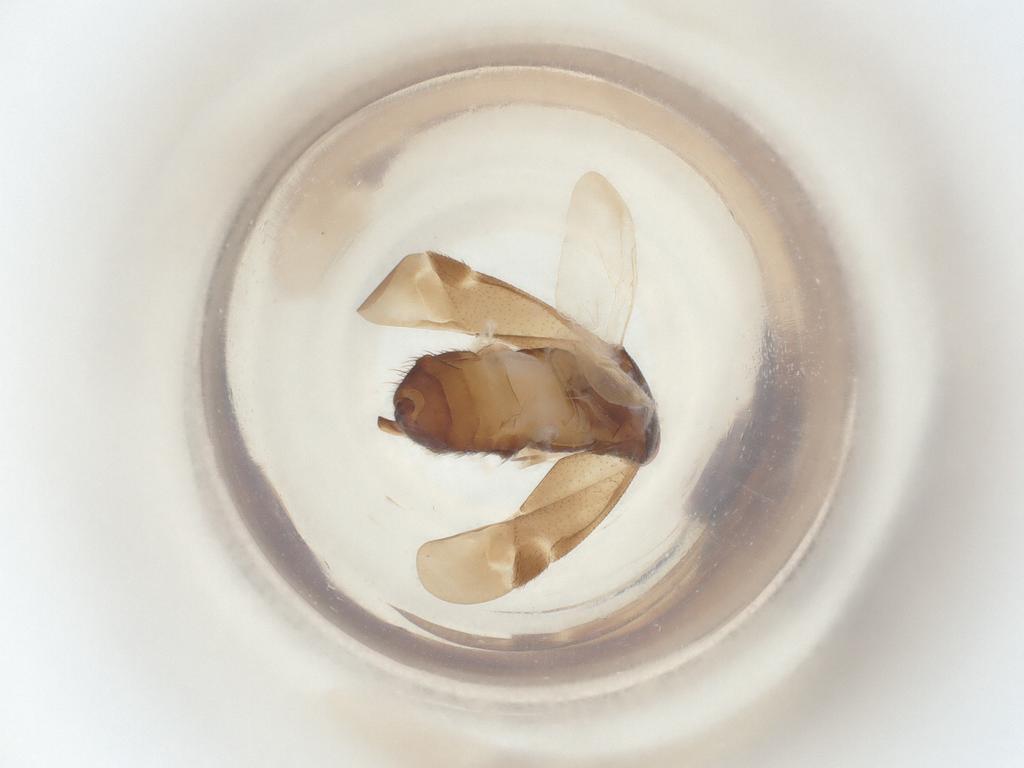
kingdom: Animalia
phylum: Arthropoda
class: Insecta
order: Hemiptera
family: Miridae
